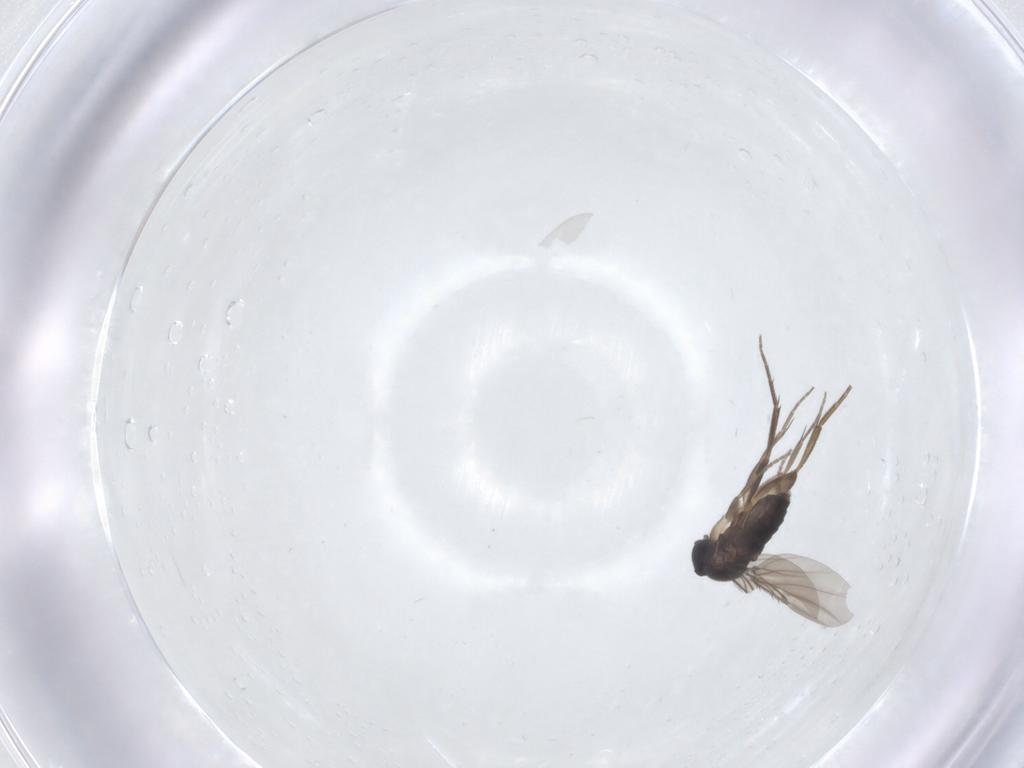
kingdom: Animalia
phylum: Arthropoda
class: Insecta
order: Diptera
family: Phoridae
